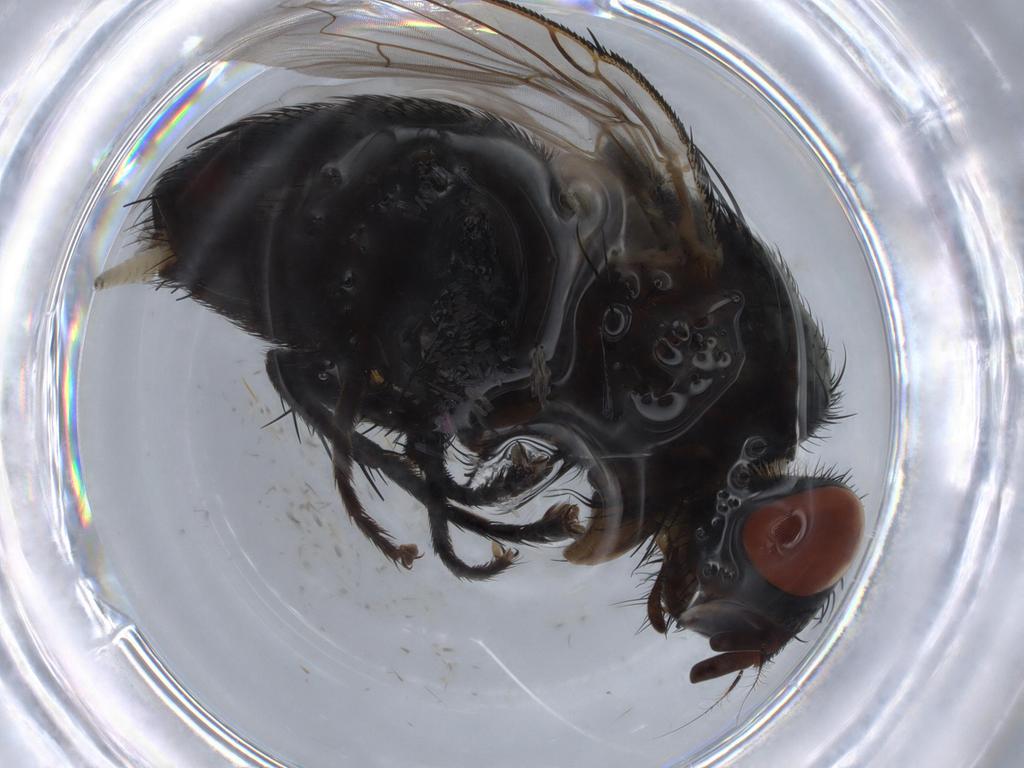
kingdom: Animalia
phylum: Arthropoda
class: Insecta
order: Diptera
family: Sarcophagidae
